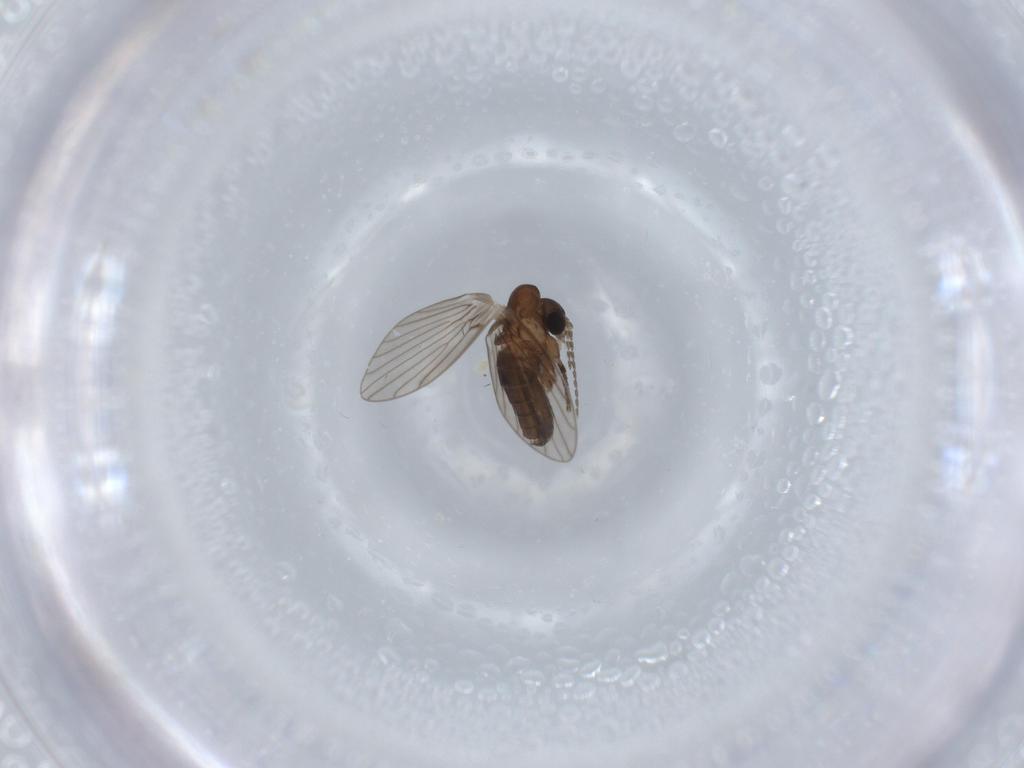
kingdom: Animalia
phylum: Arthropoda
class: Insecta
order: Diptera
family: Psychodidae
